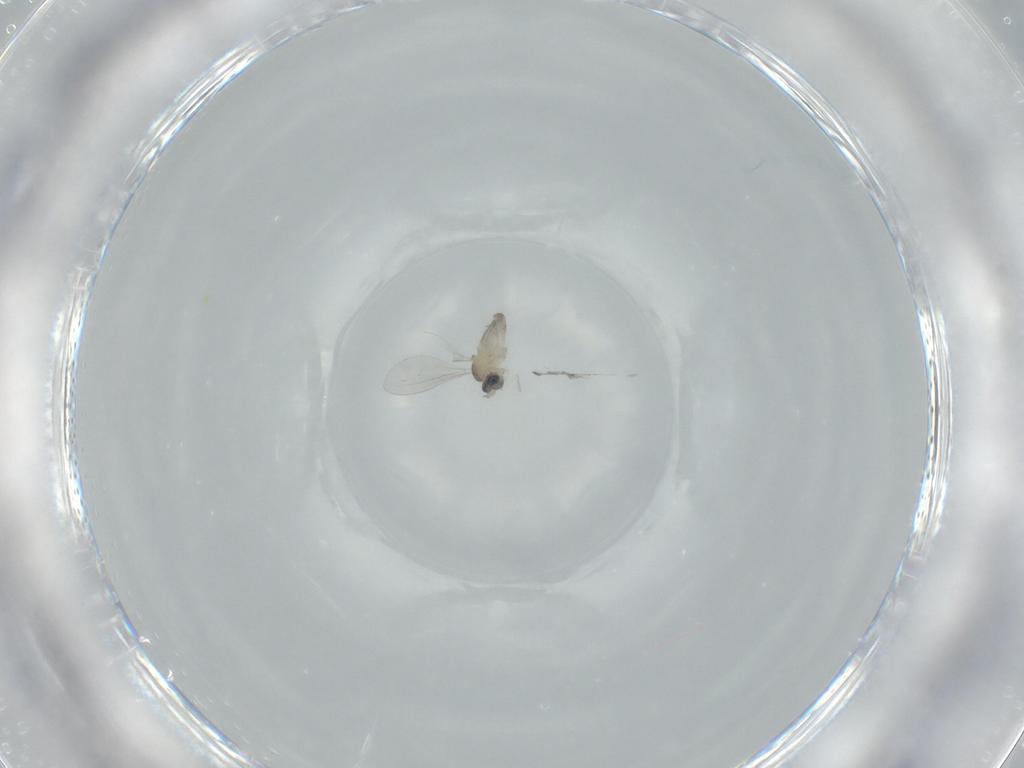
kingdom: Animalia
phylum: Arthropoda
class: Insecta
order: Diptera
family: Cecidomyiidae
